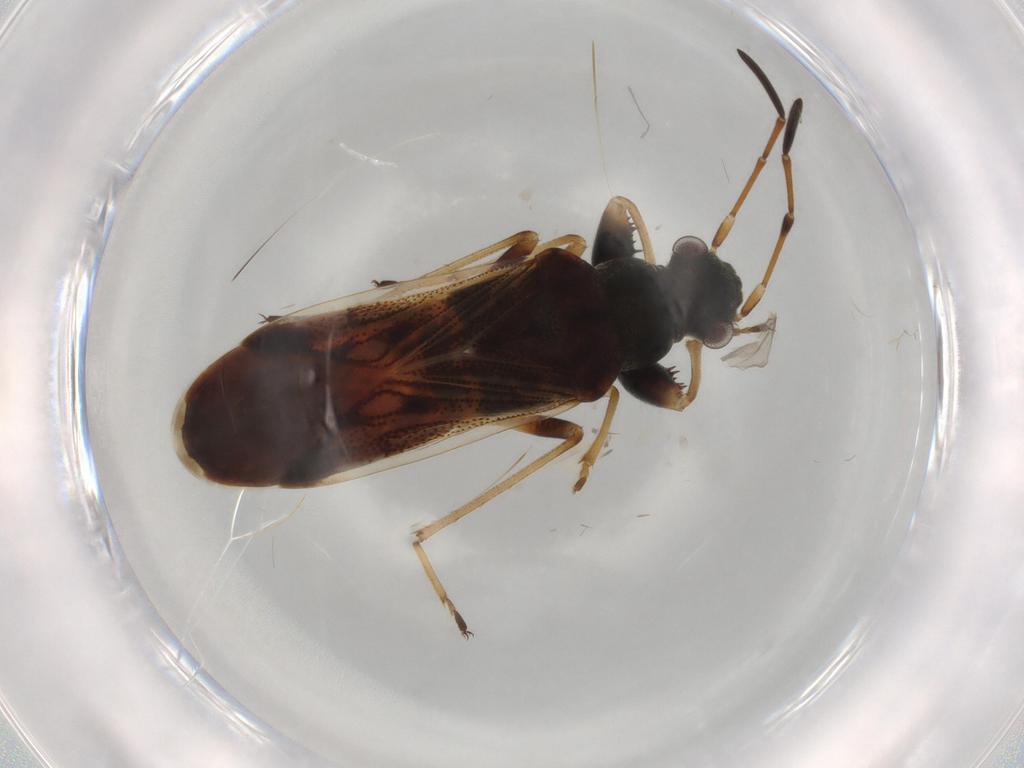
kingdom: Animalia
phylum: Arthropoda
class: Insecta
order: Hemiptera
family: Rhyparochromidae
